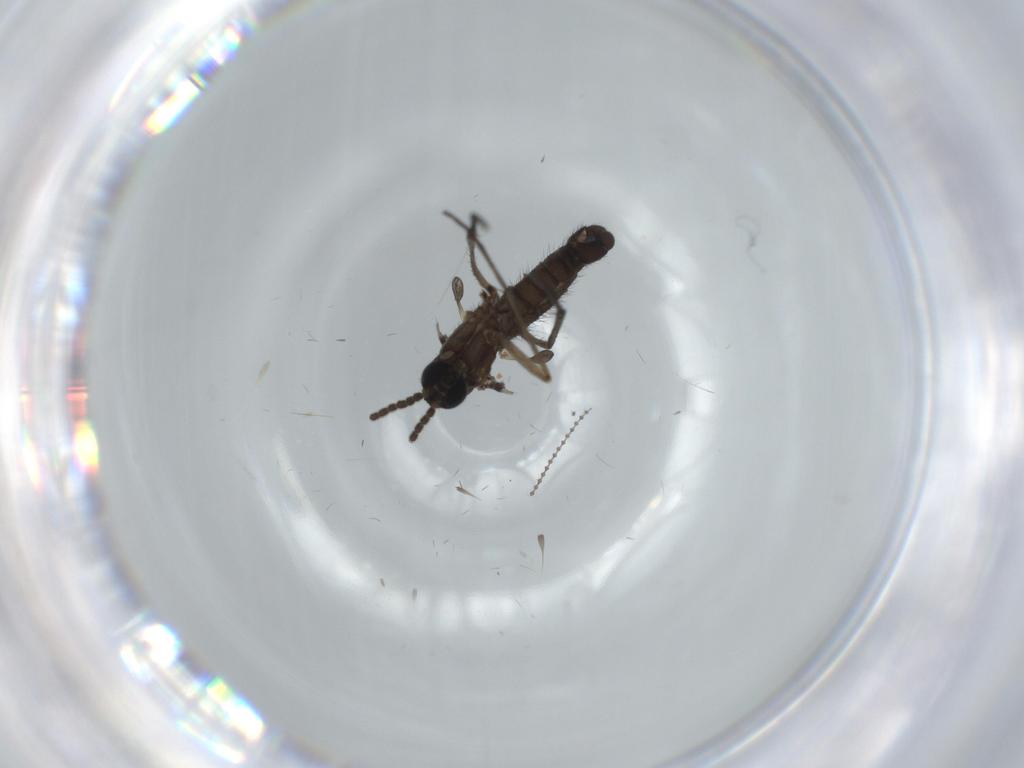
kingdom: Animalia
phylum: Arthropoda
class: Insecta
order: Diptera
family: Sciaridae
